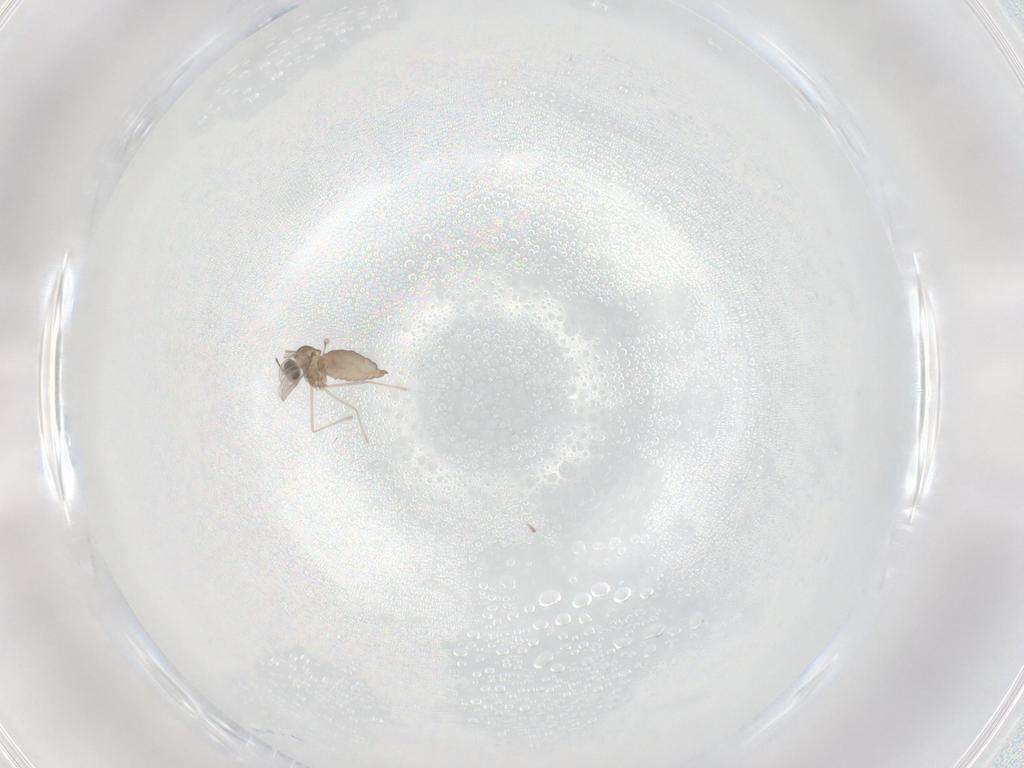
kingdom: Animalia
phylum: Arthropoda
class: Insecta
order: Diptera
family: Cecidomyiidae
